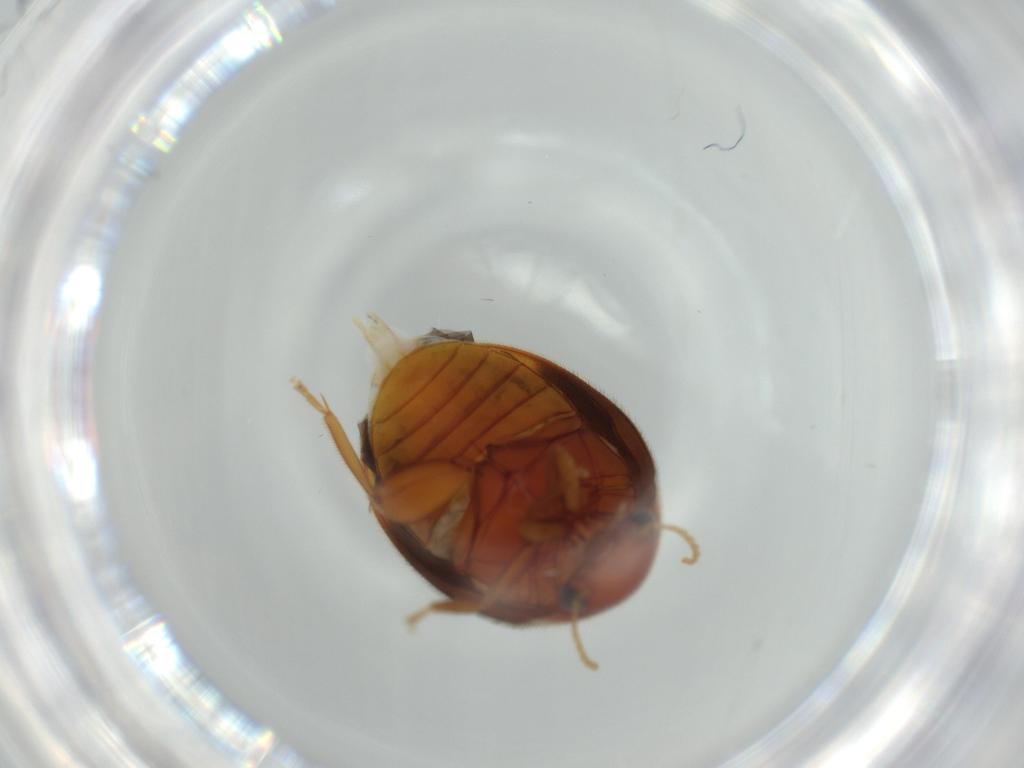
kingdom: Animalia
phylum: Arthropoda
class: Insecta
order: Coleoptera
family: Scirtidae
